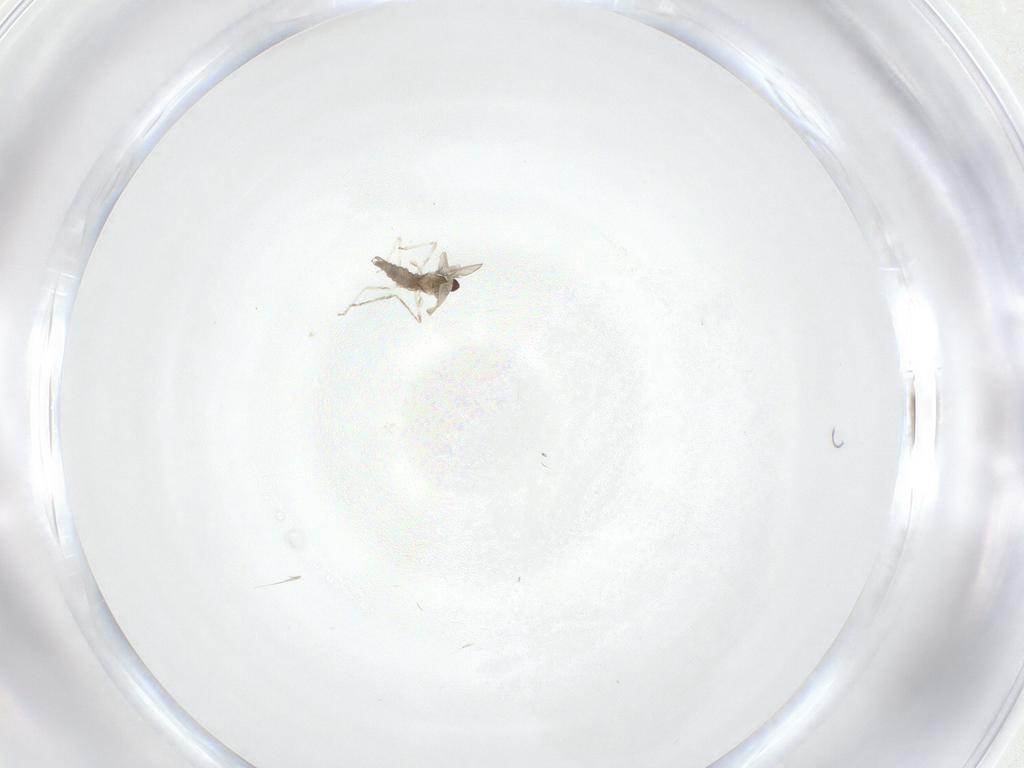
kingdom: Animalia
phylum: Arthropoda
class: Insecta
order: Diptera
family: Cecidomyiidae
